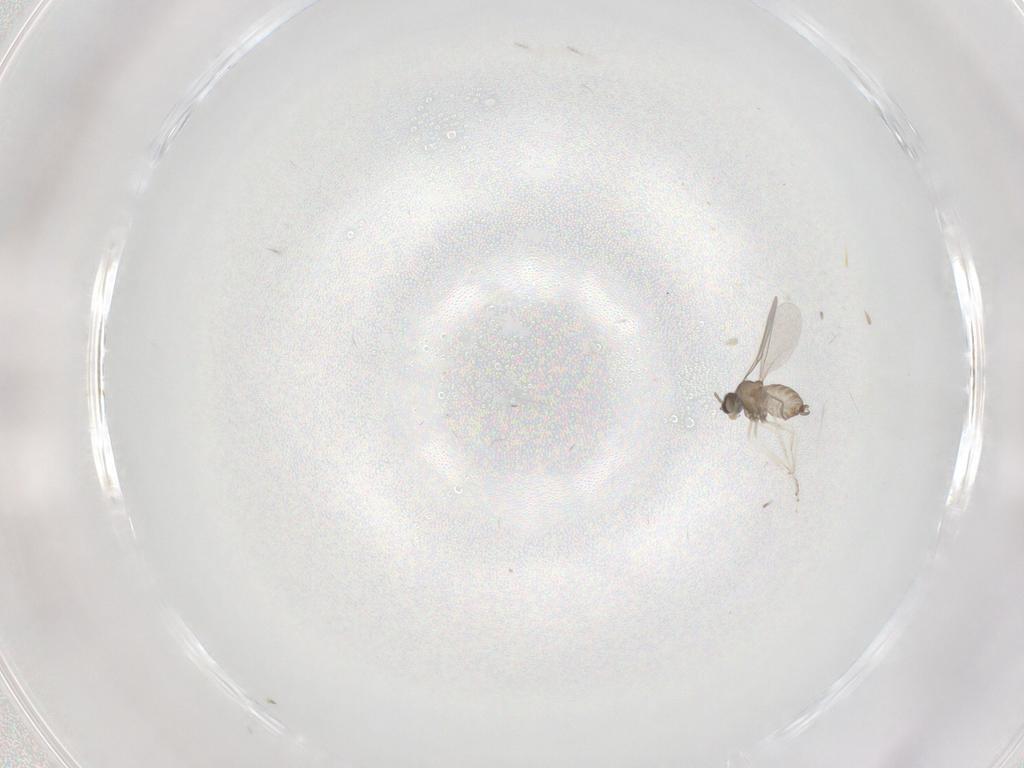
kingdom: Animalia
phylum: Arthropoda
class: Insecta
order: Diptera
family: Cecidomyiidae
